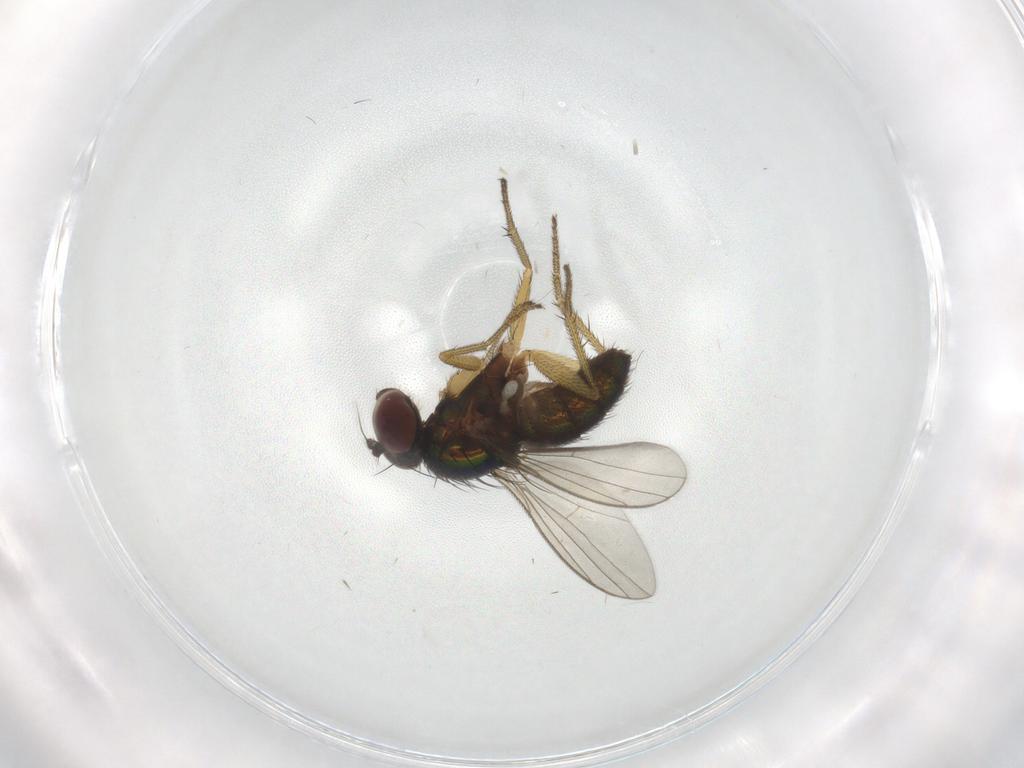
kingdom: Animalia
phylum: Arthropoda
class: Insecta
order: Diptera
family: Dolichopodidae
